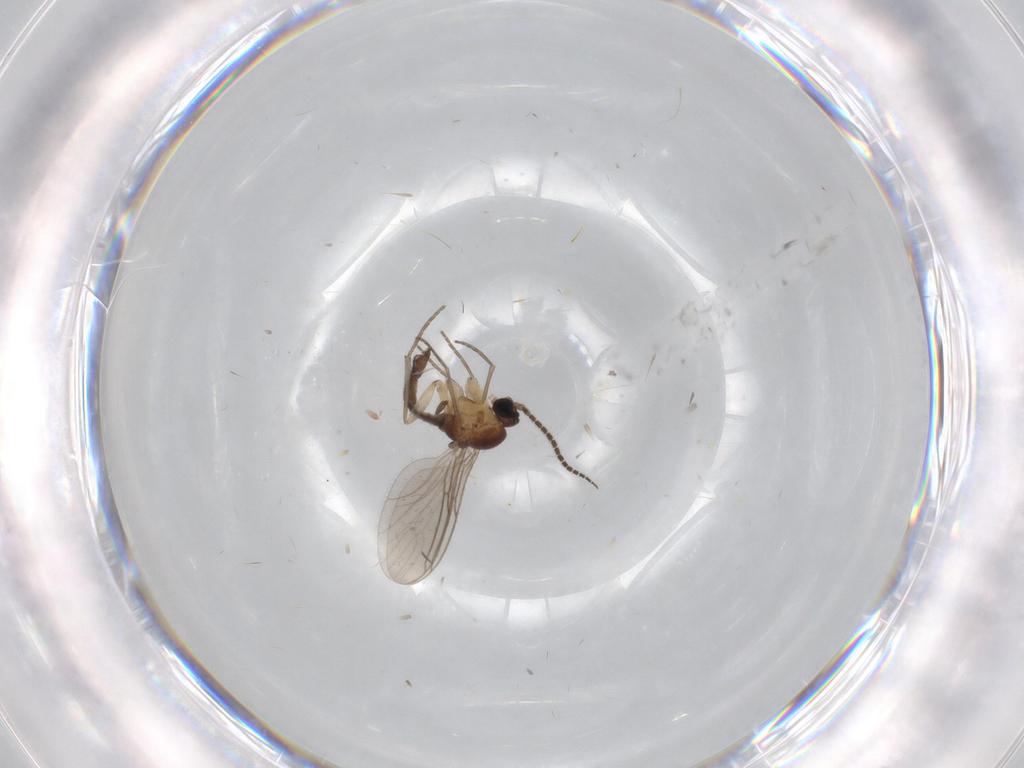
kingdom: Animalia
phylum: Arthropoda
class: Insecta
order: Diptera
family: Sciaridae
